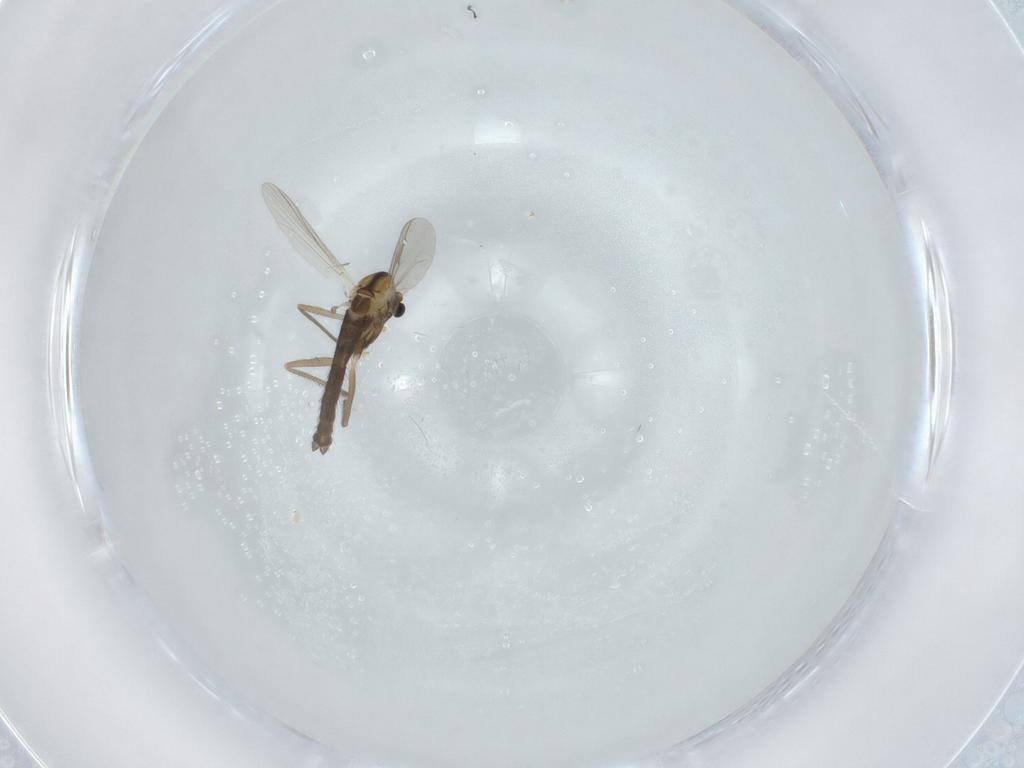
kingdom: Animalia
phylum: Arthropoda
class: Insecta
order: Diptera
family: Chironomidae
